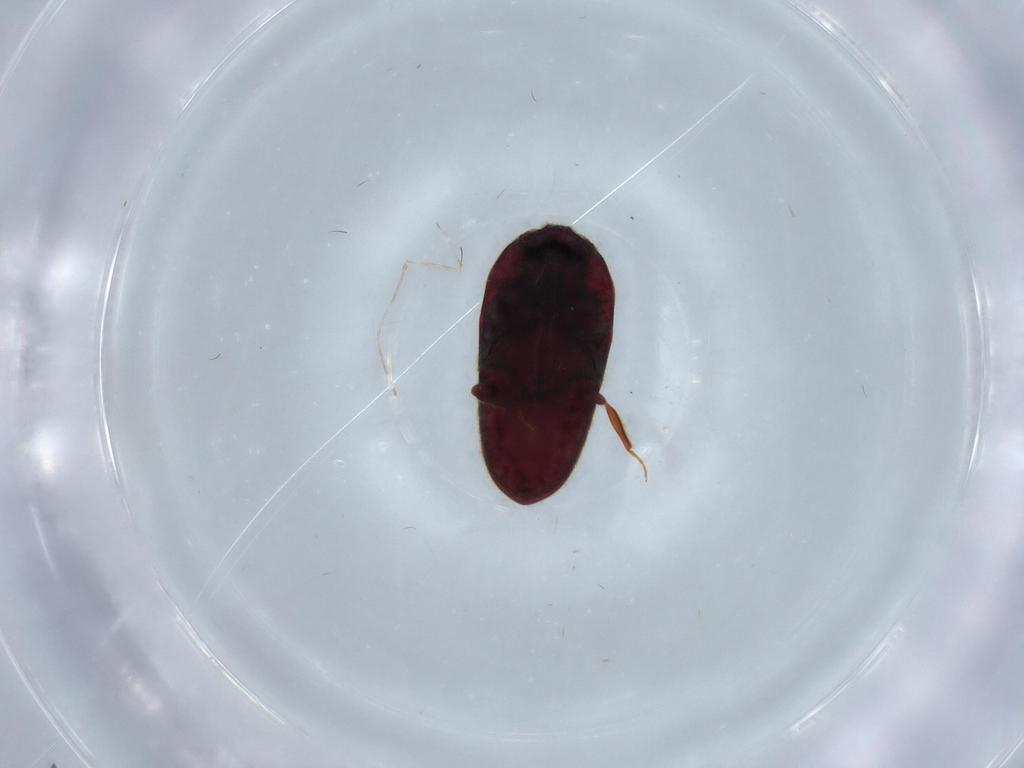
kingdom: Animalia
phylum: Arthropoda
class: Insecta
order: Coleoptera
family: Throscidae
